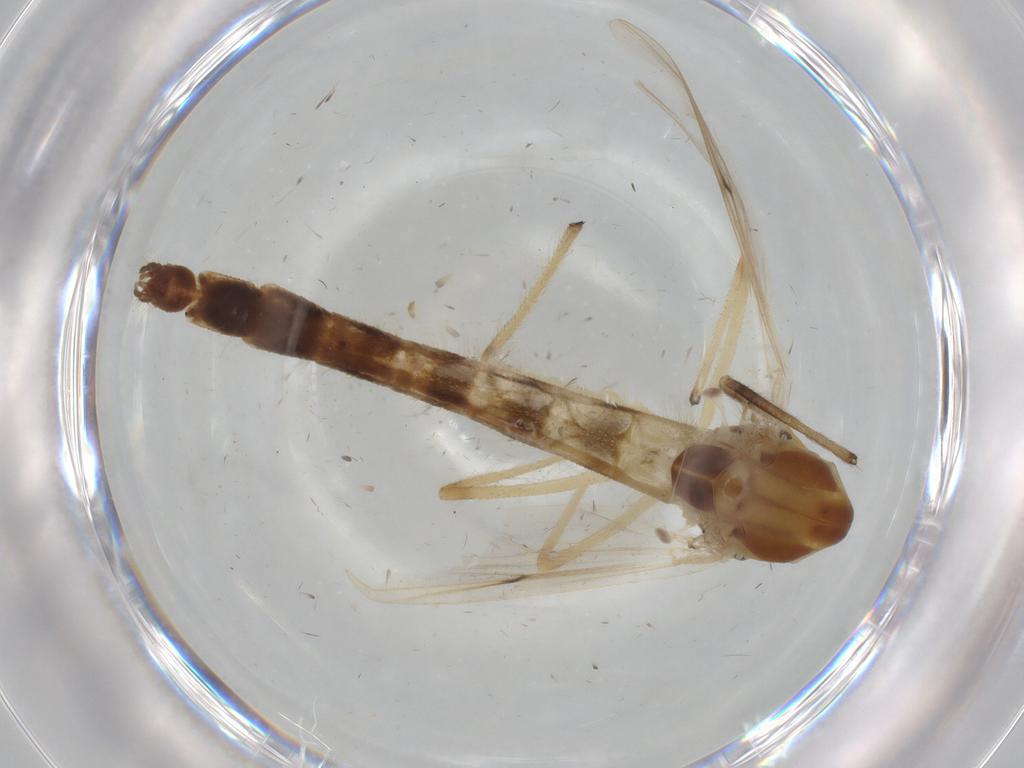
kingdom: Animalia
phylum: Arthropoda
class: Insecta
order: Diptera
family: Chironomidae
